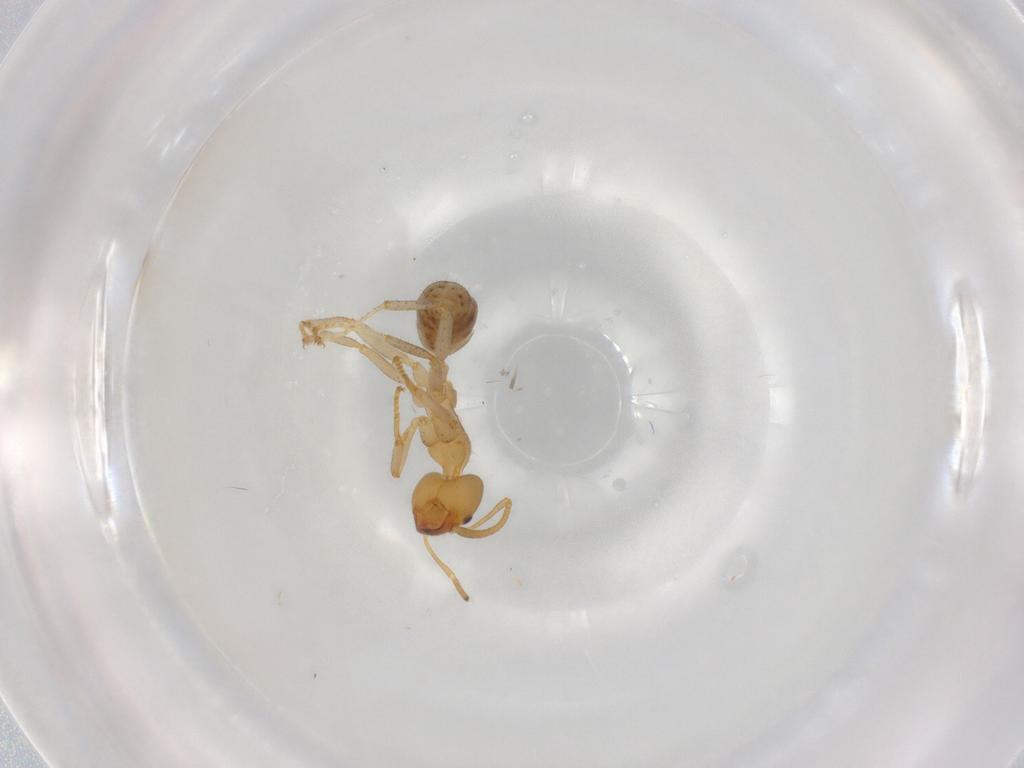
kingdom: Animalia
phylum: Arthropoda
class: Insecta
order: Hymenoptera
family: Formicidae
